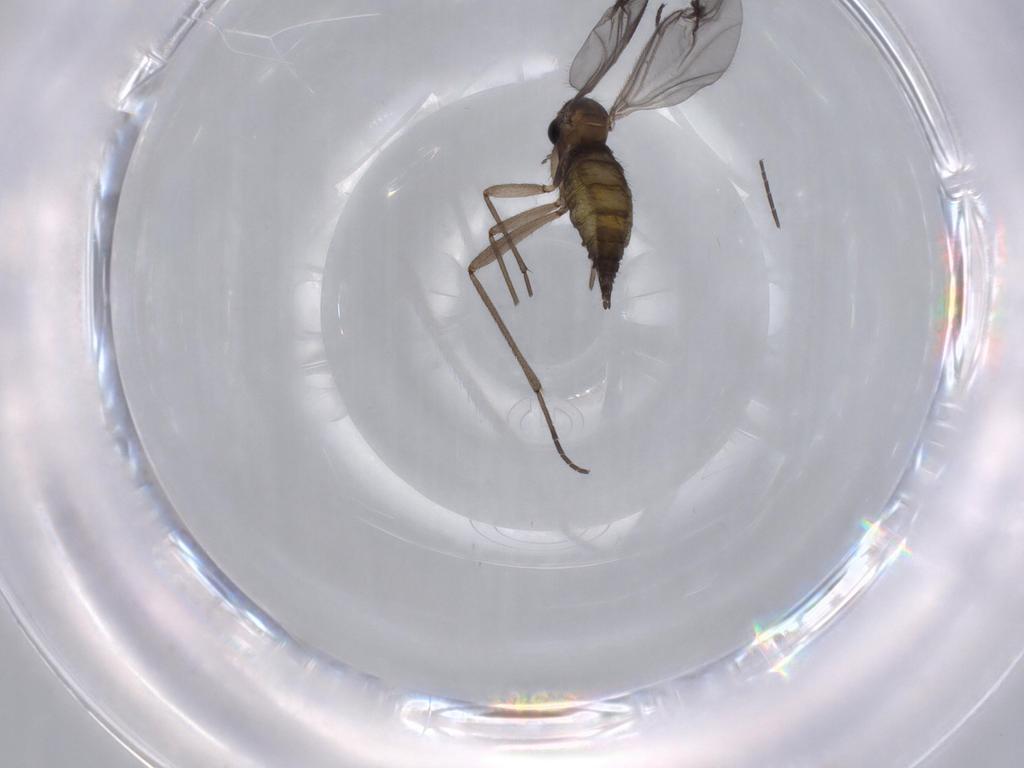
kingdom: Animalia
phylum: Arthropoda
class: Insecta
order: Diptera
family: Sciaridae
